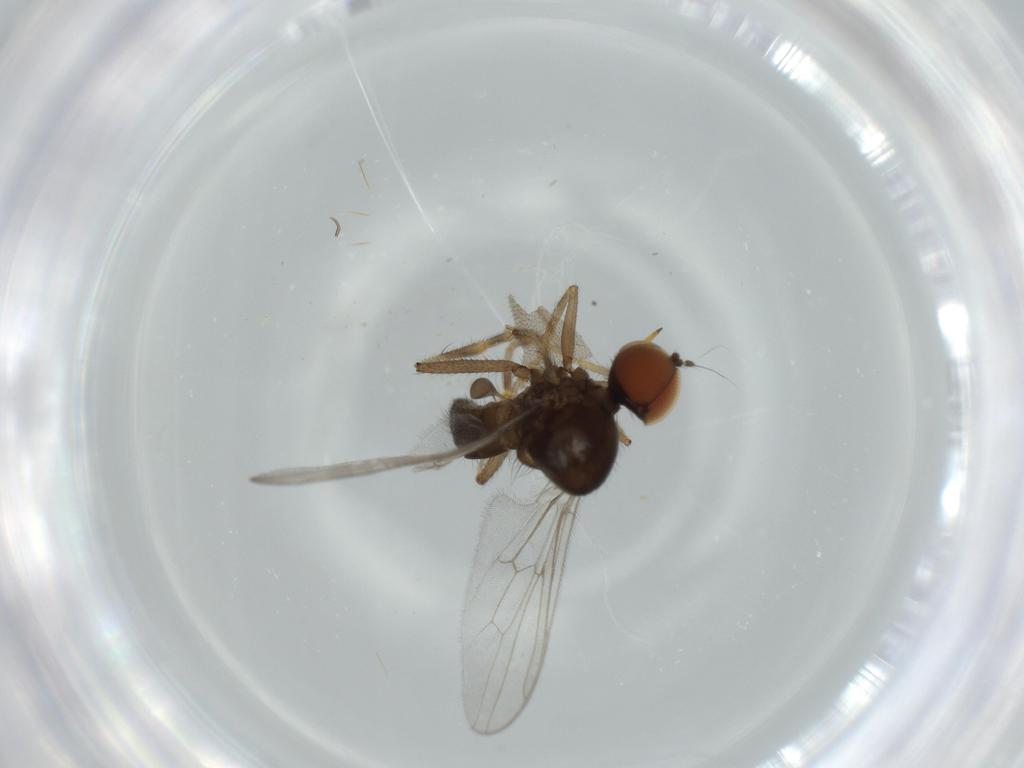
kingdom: Animalia
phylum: Arthropoda
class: Insecta
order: Diptera
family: Hybotidae
